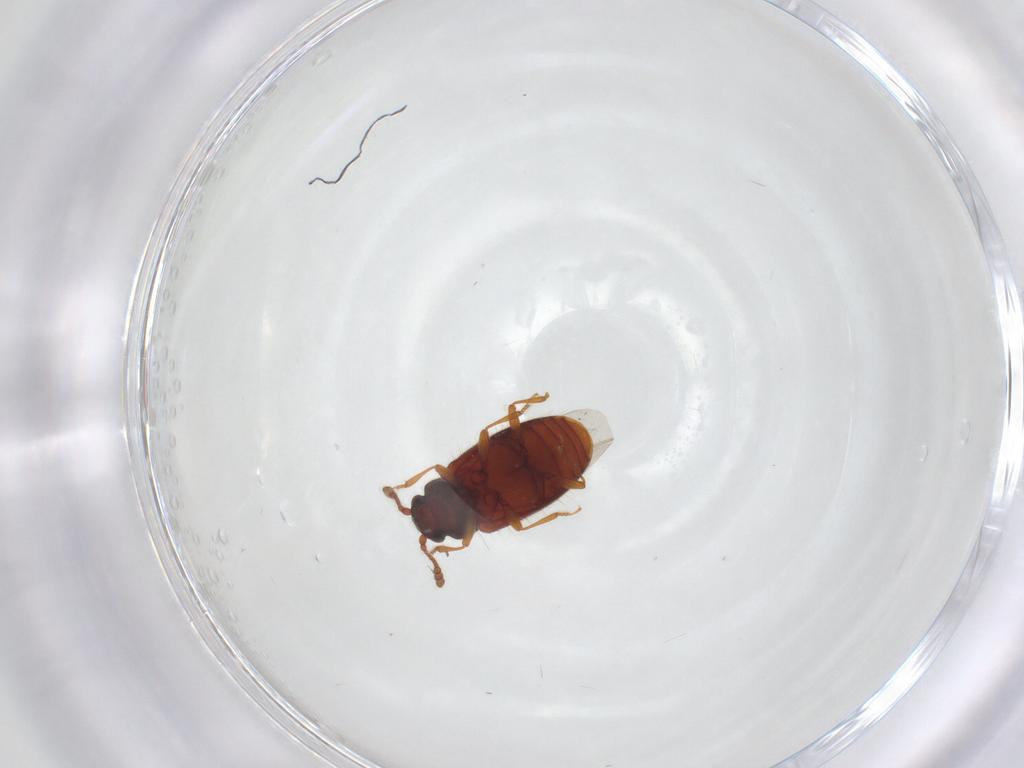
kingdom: Animalia
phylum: Arthropoda
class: Insecta
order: Coleoptera
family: Cryptophagidae
